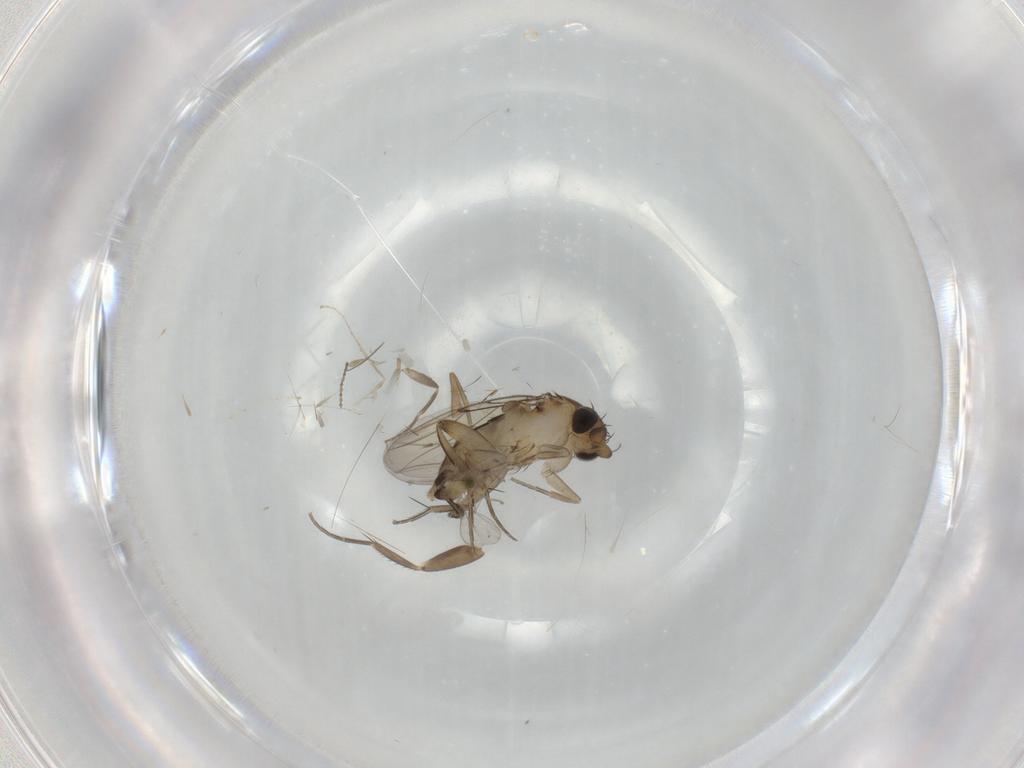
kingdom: Animalia
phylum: Arthropoda
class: Insecta
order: Diptera
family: Phoridae
